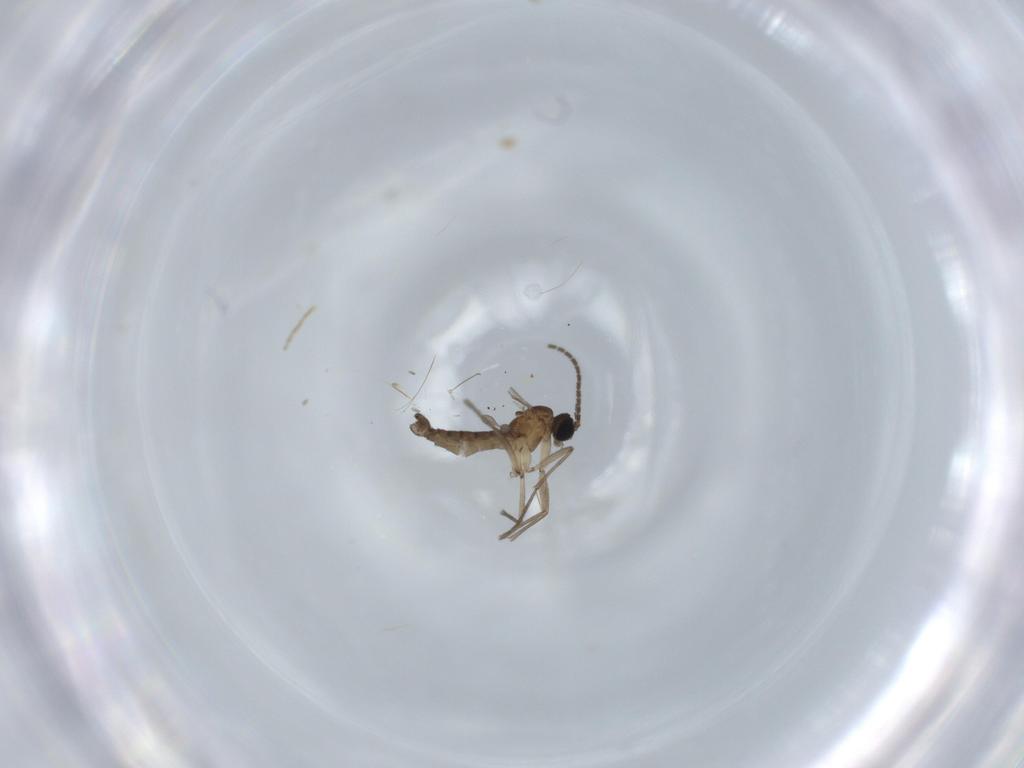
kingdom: Animalia
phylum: Arthropoda
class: Insecta
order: Diptera
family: Sciaridae
